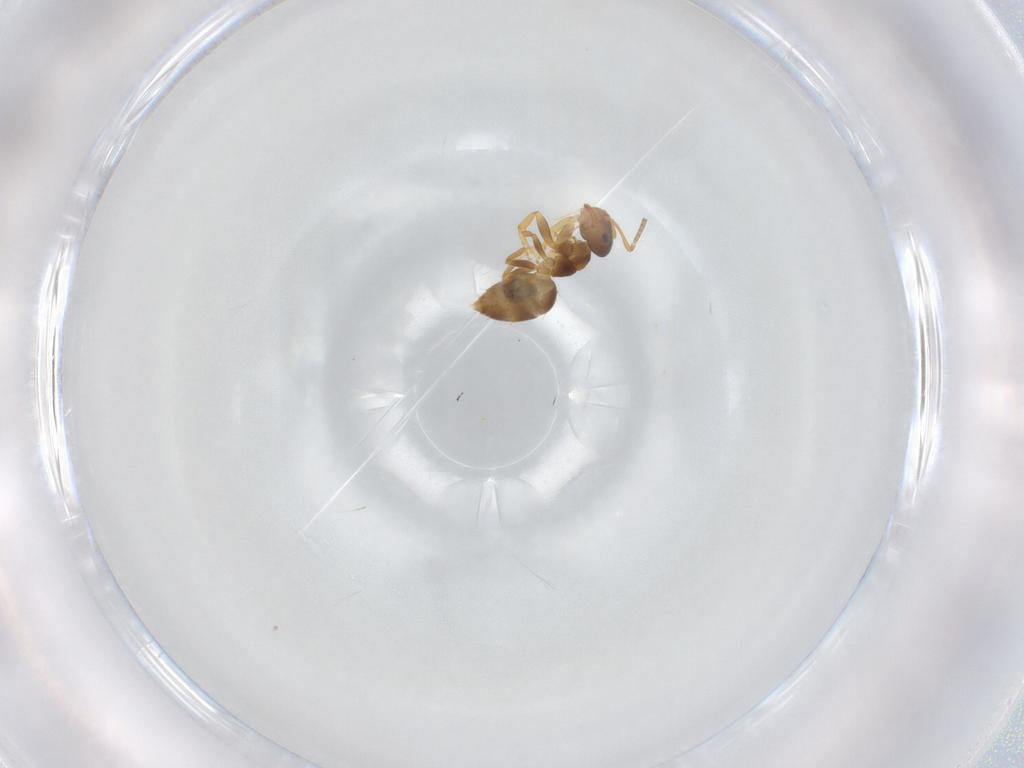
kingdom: Animalia
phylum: Arthropoda
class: Insecta
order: Hymenoptera
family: Formicidae
